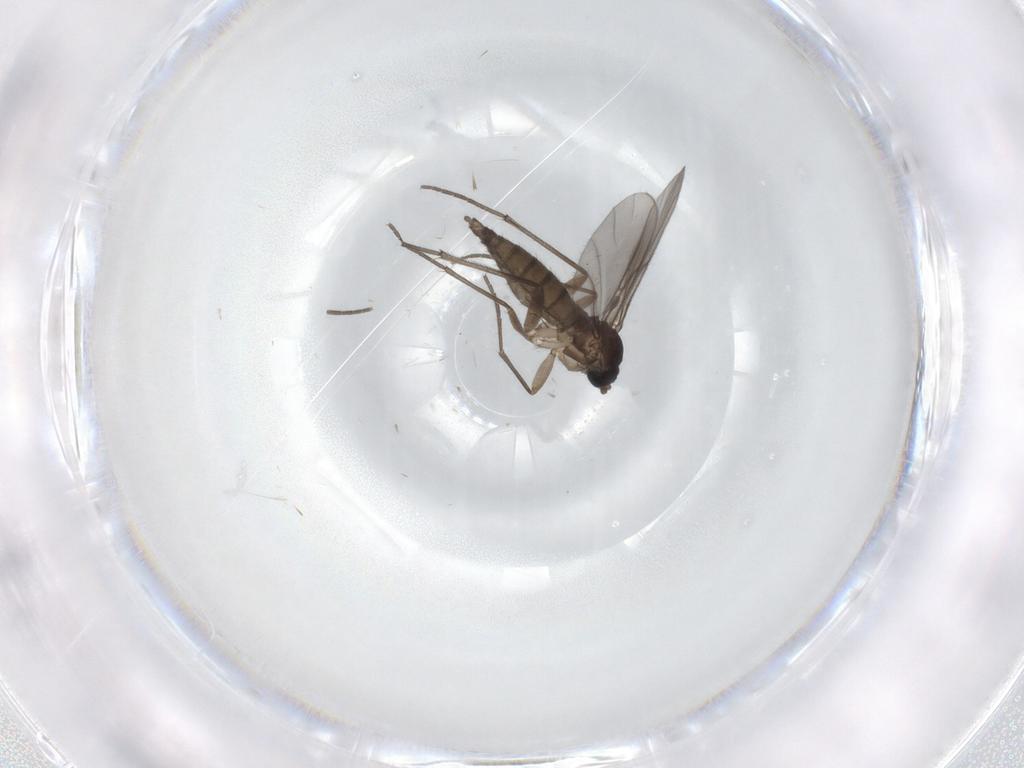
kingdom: Animalia
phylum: Arthropoda
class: Insecta
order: Diptera
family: Sciaridae
